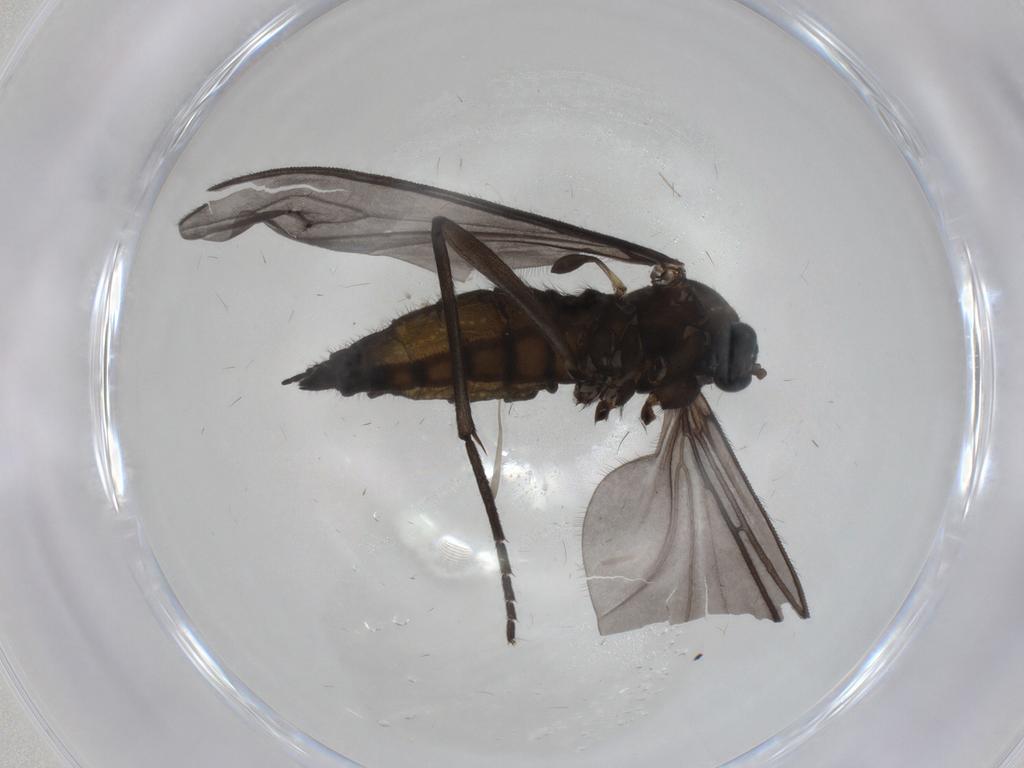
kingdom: Animalia
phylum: Arthropoda
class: Insecta
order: Diptera
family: Sciaridae
